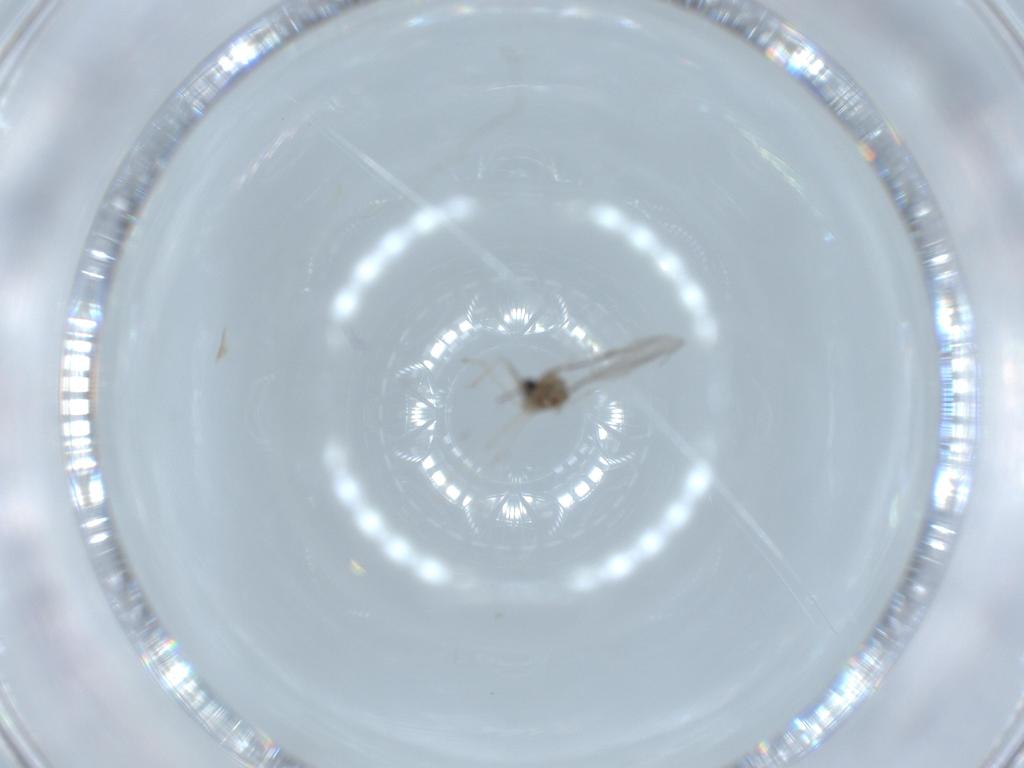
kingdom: Animalia
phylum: Arthropoda
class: Insecta
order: Diptera
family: Cecidomyiidae
